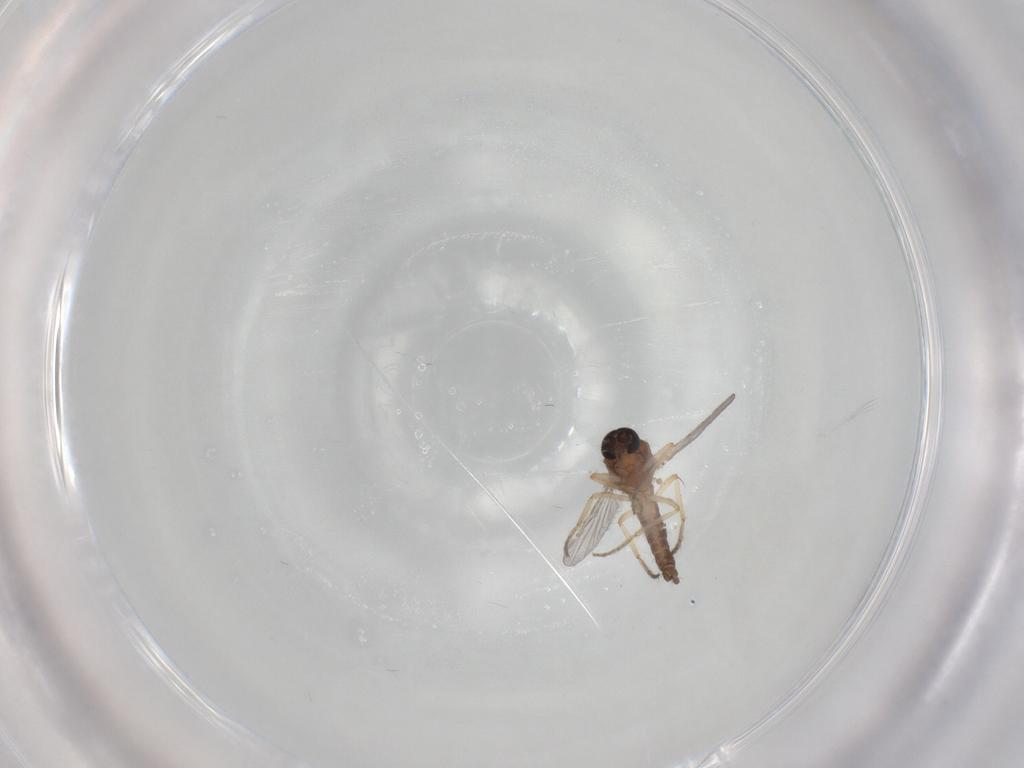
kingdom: Animalia
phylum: Arthropoda
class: Insecta
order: Diptera
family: Ceratopogonidae
